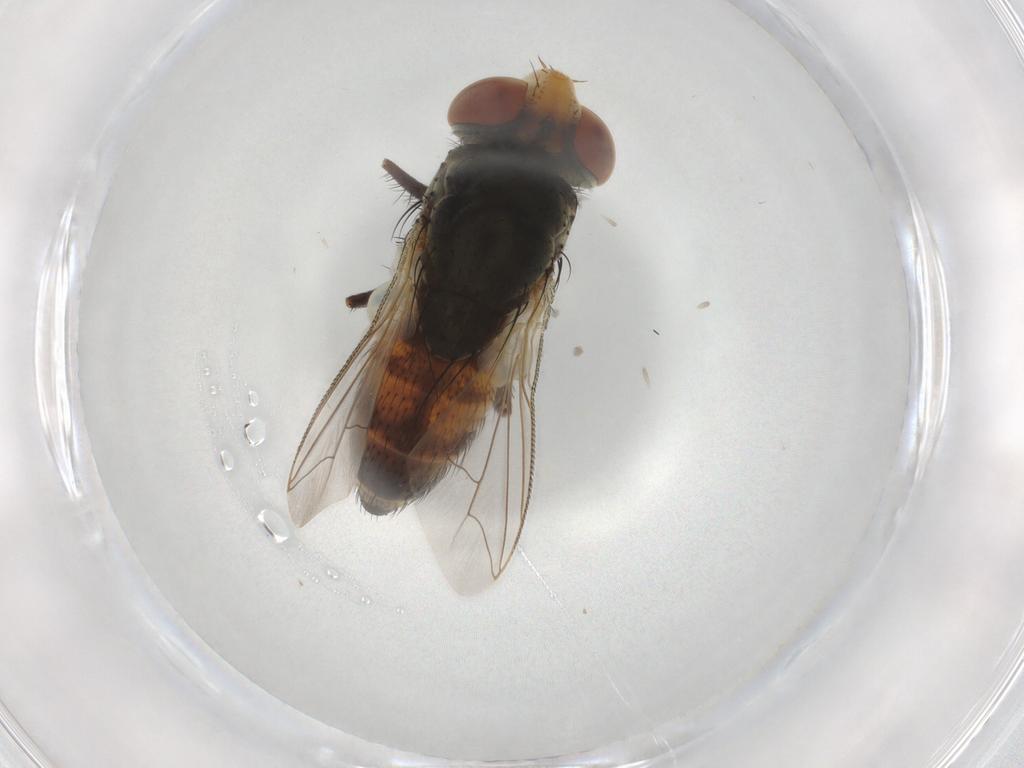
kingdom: Animalia
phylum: Arthropoda
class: Insecta
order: Diptera
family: Sarcophagidae
